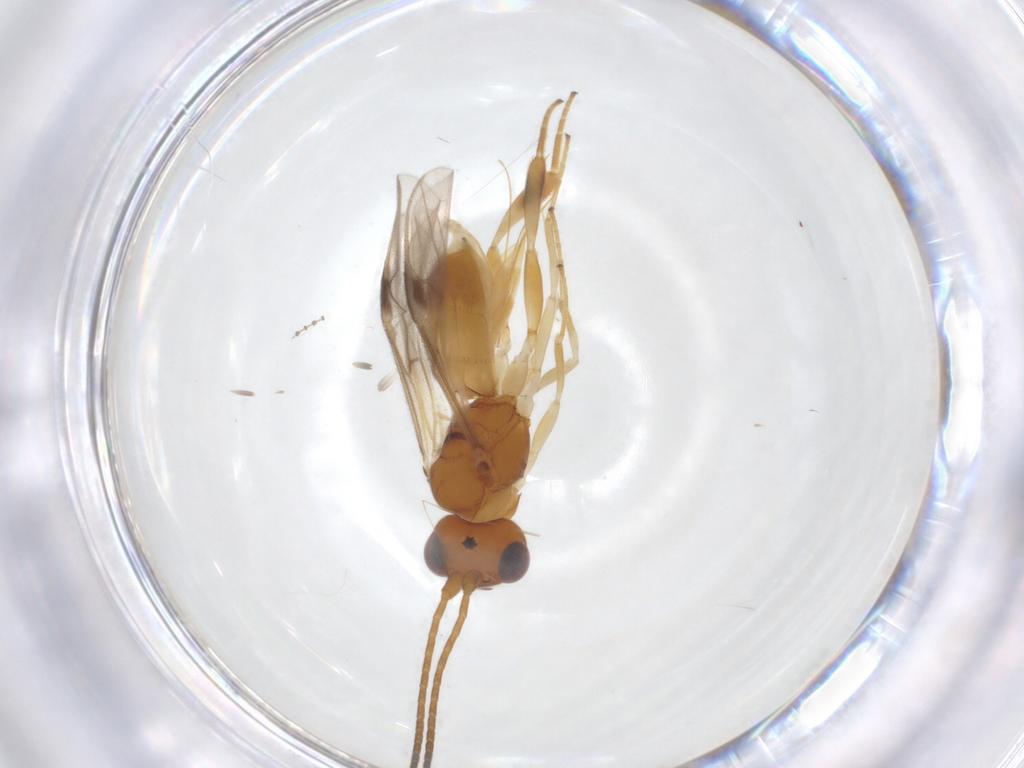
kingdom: Animalia
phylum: Arthropoda
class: Insecta
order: Hymenoptera
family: Braconidae
